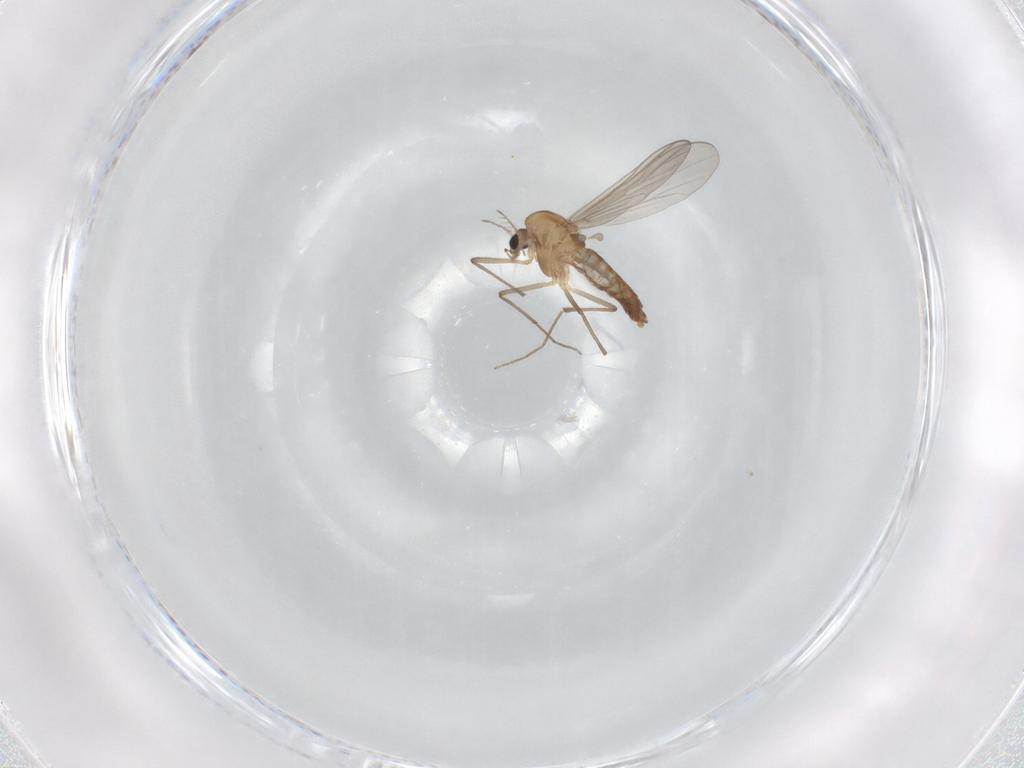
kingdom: Animalia
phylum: Arthropoda
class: Insecta
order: Diptera
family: Chironomidae
